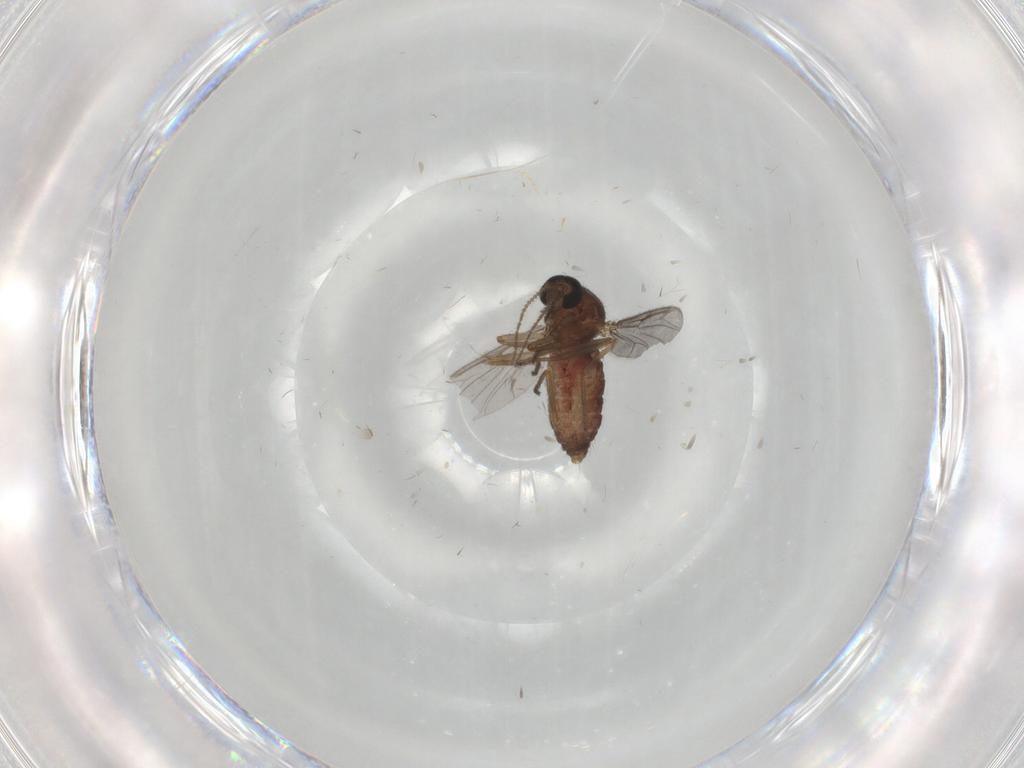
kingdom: Animalia
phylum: Arthropoda
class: Insecta
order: Diptera
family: Ceratopogonidae
